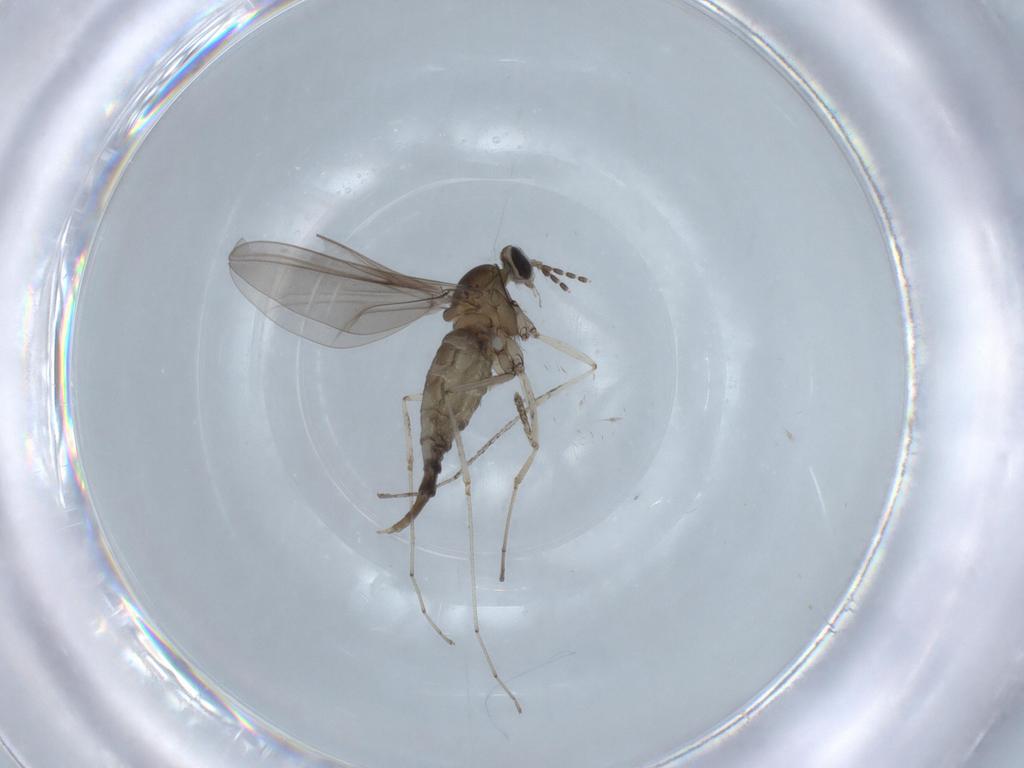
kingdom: Animalia
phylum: Arthropoda
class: Insecta
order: Diptera
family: Cecidomyiidae
